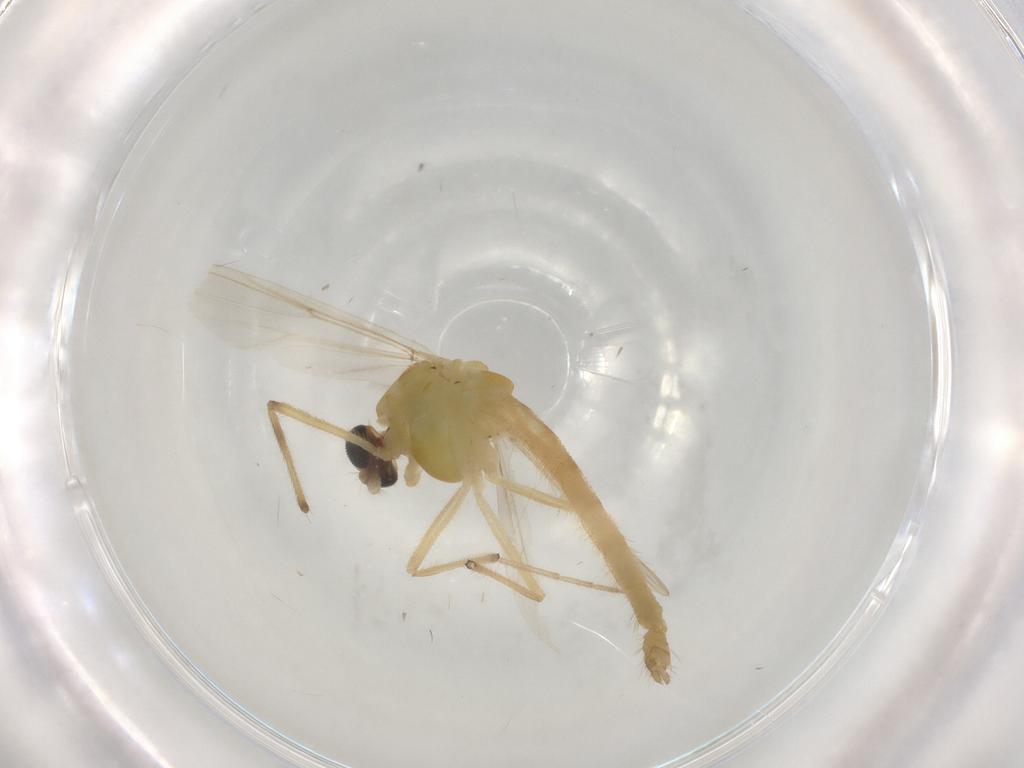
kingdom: Animalia
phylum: Arthropoda
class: Insecta
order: Diptera
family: Chironomidae
